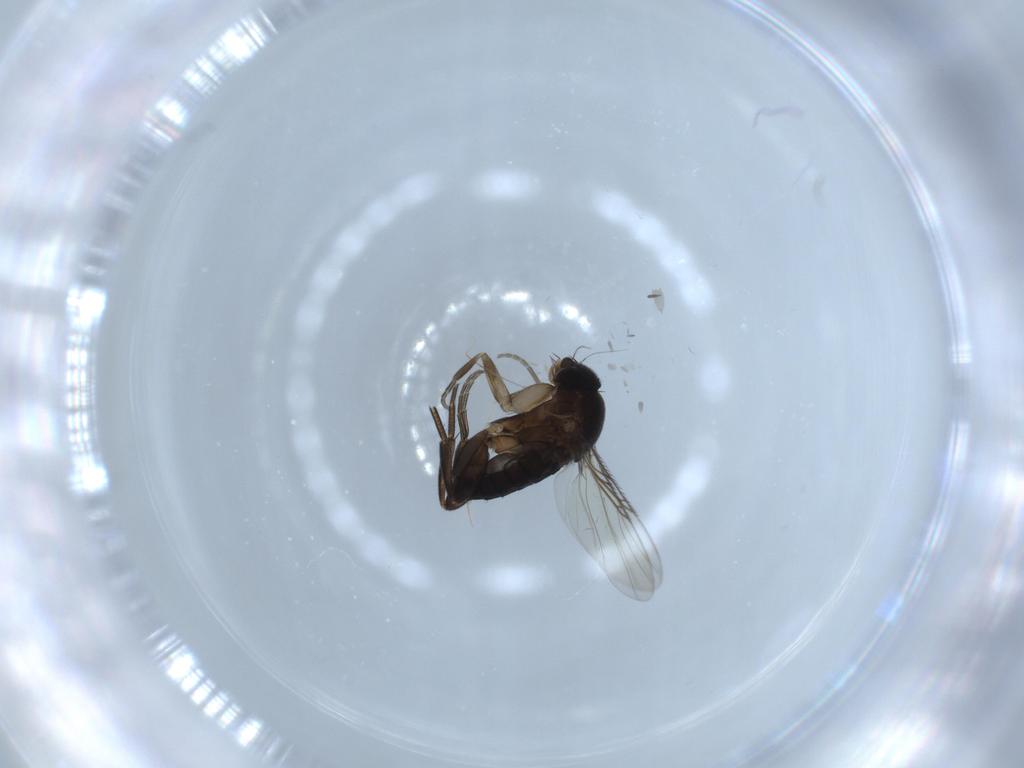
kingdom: Animalia
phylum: Arthropoda
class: Insecta
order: Diptera
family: Phoridae
